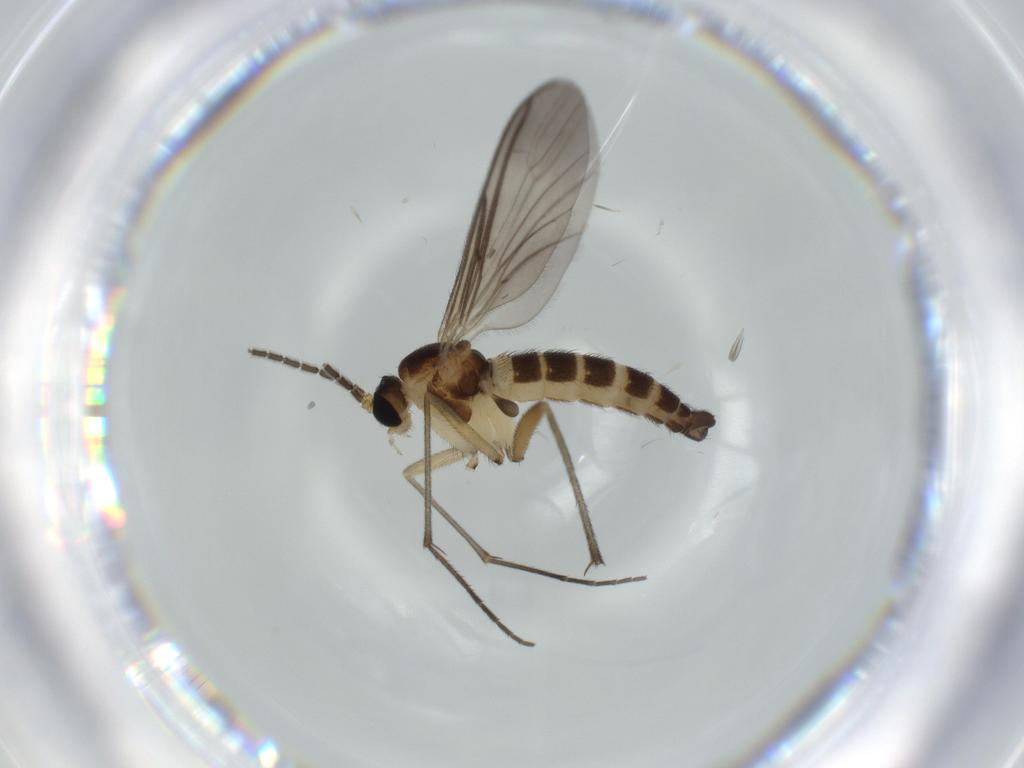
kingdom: Animalia
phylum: Arthropoda
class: Insecta
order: Diptera
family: Sciaridae
